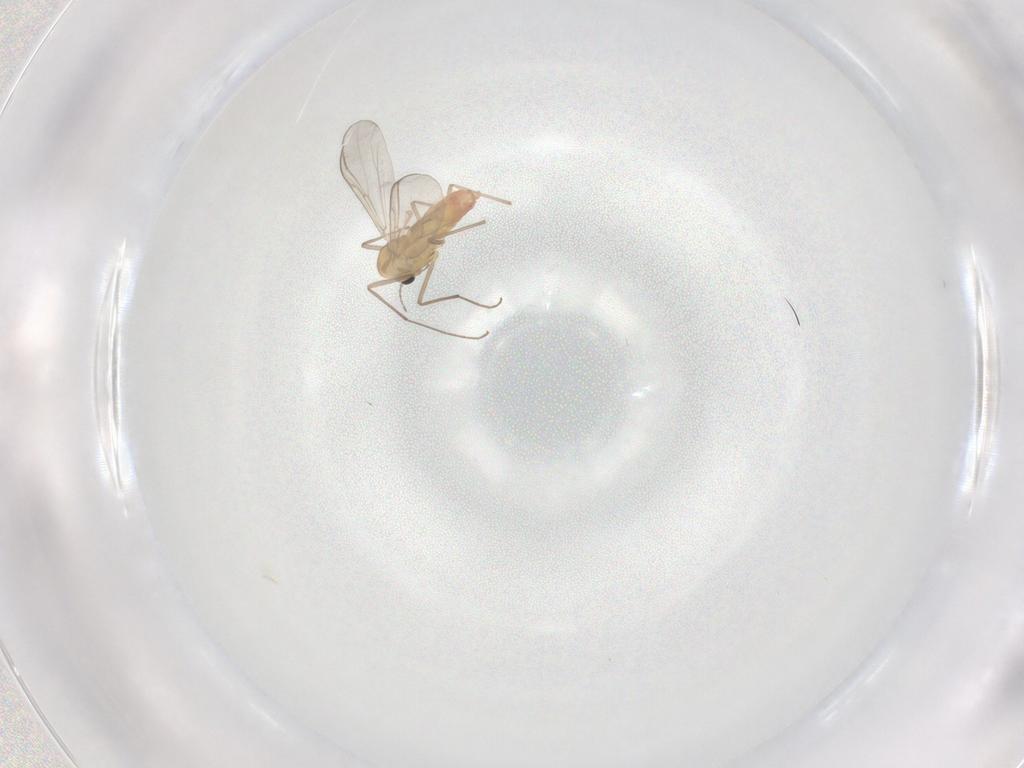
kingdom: Animalia
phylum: Arthropoda
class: Insecta
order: Diptera
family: Chironomidae
